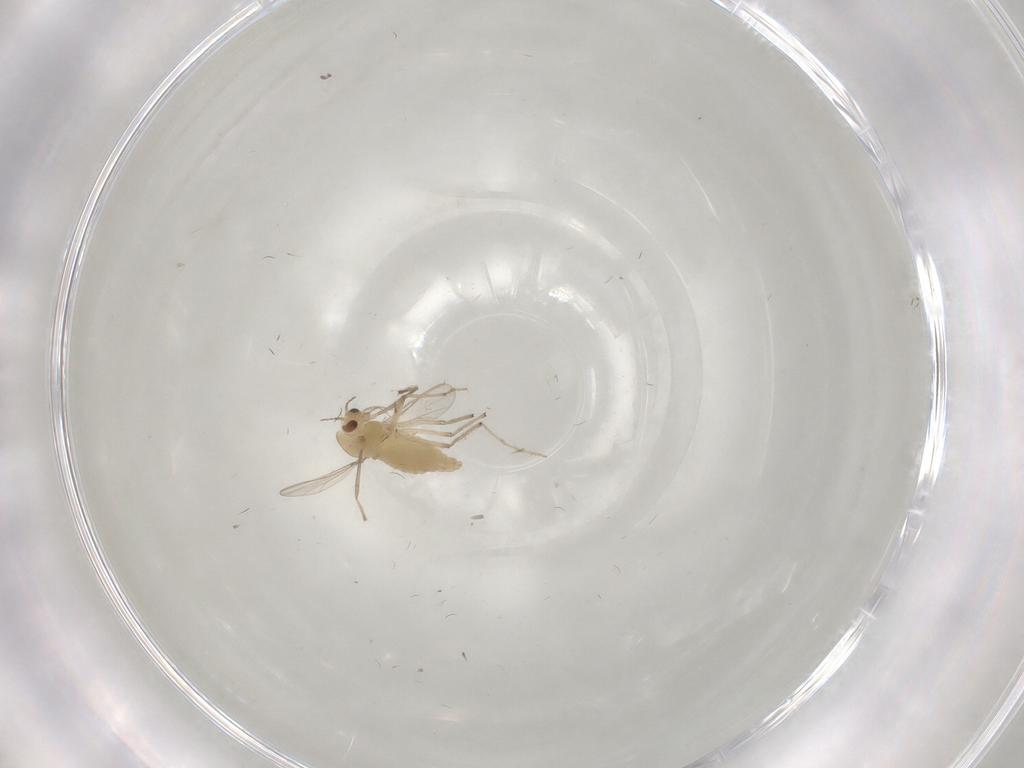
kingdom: Animalia
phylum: Arthropoda
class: Insecta
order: Diptera
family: Chironomidae
